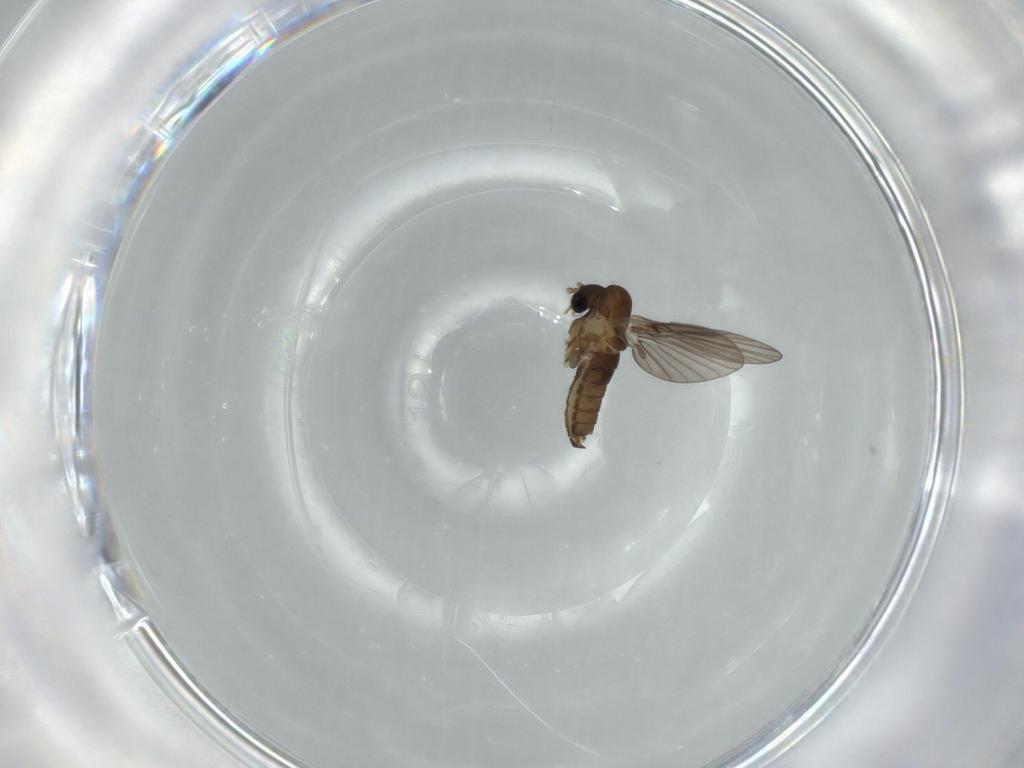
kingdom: Animalia
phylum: Arthropoda
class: Insecta
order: Diptera
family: Psychodidae
